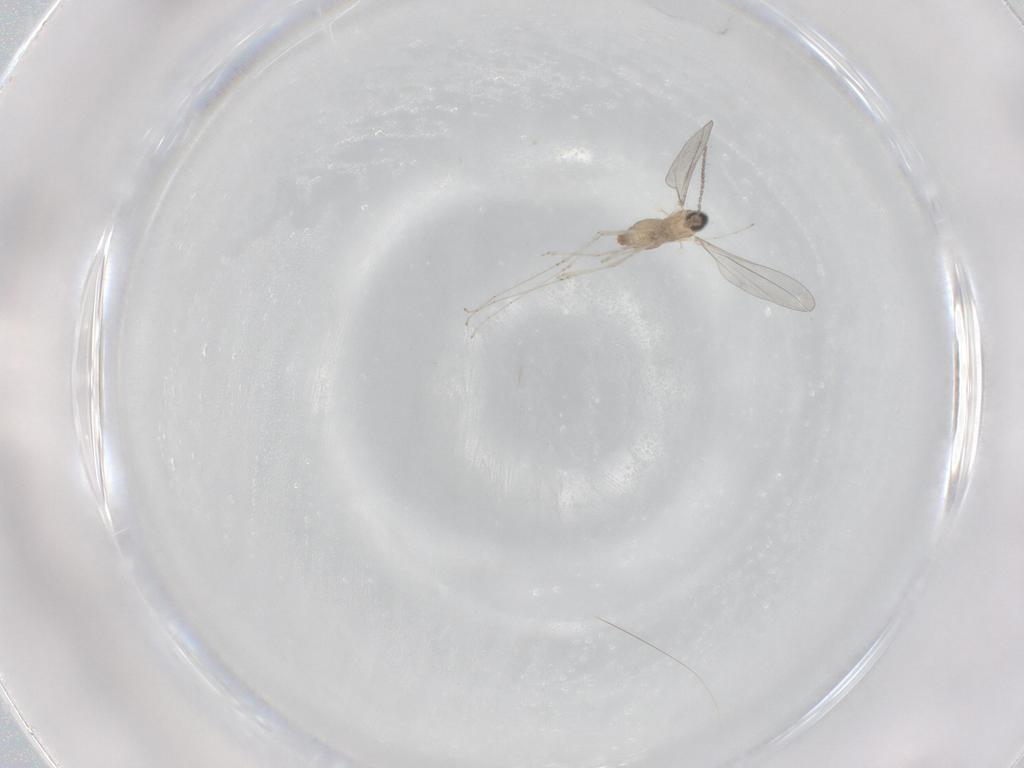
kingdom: Animalia
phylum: Arthropoda
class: Insecta
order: Diptera
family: Cecidomyiidae
